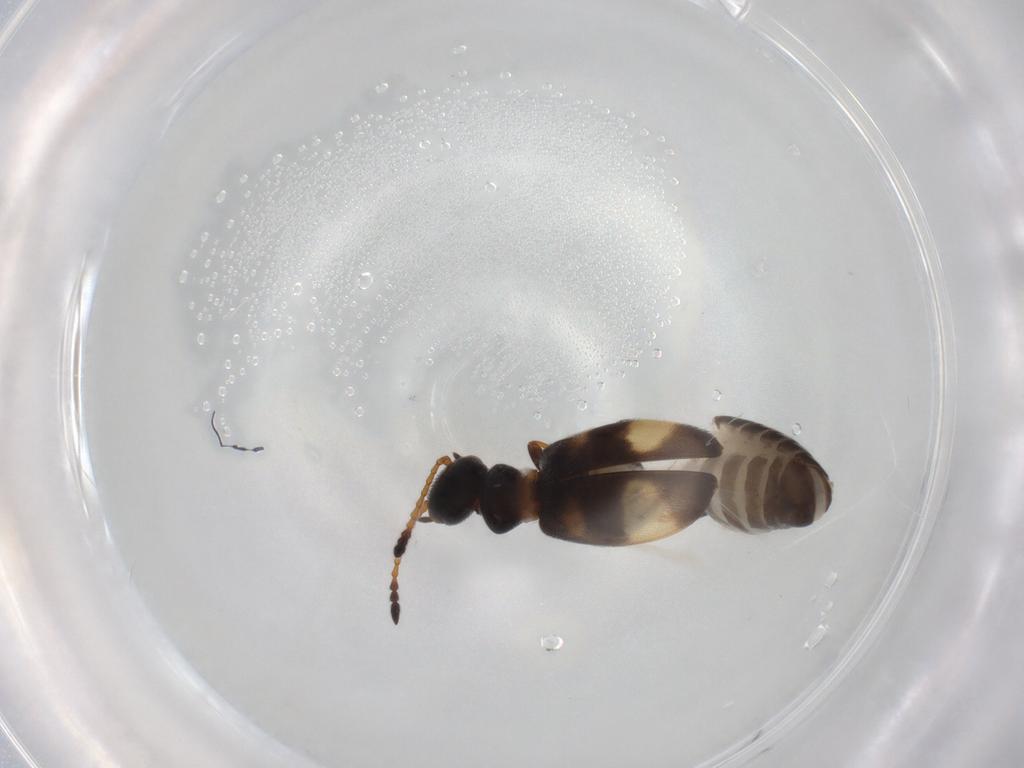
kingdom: Animalia
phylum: Arthropoda
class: Insecta
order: Coleoptera
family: Anthicidae
